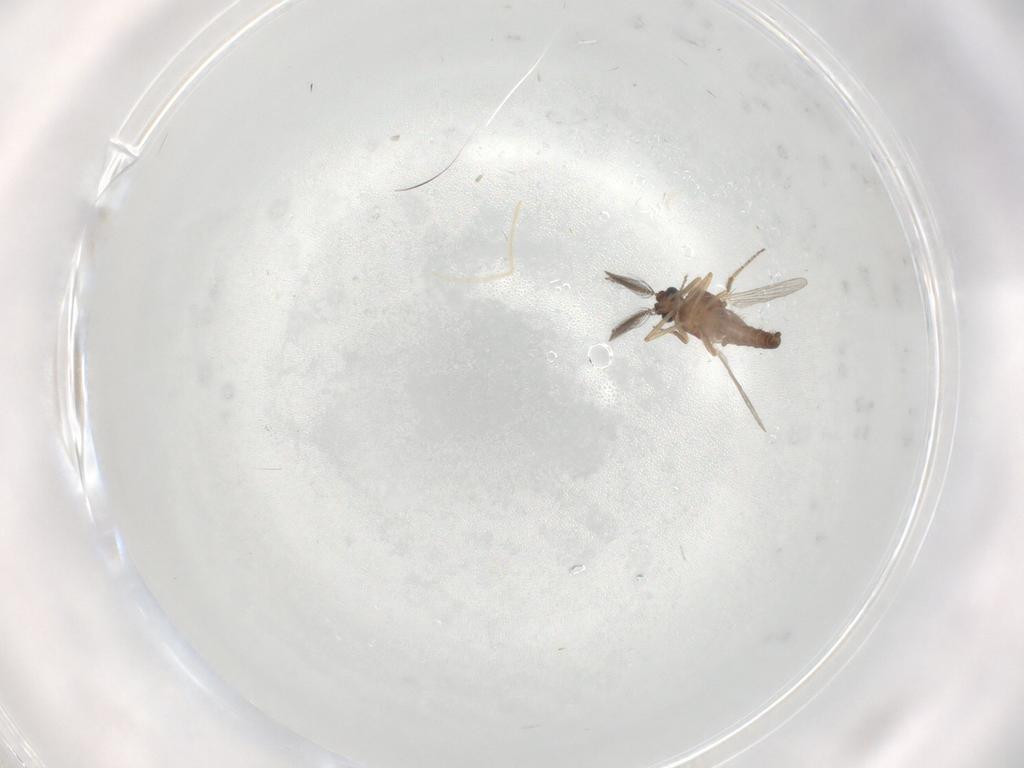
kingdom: Animalia
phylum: Arthropoda
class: Insecta
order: Diptera
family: Ceratopogonidae
